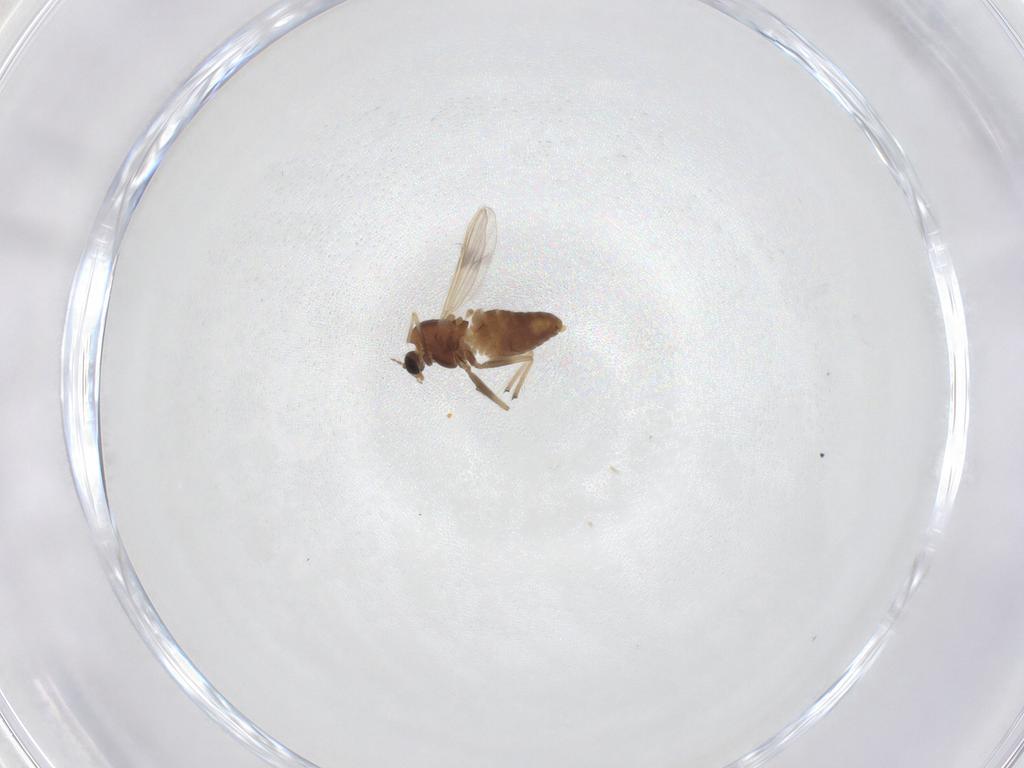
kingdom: Animalia
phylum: Arthropoda
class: Insecta
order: Diptera
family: Chironomidae
